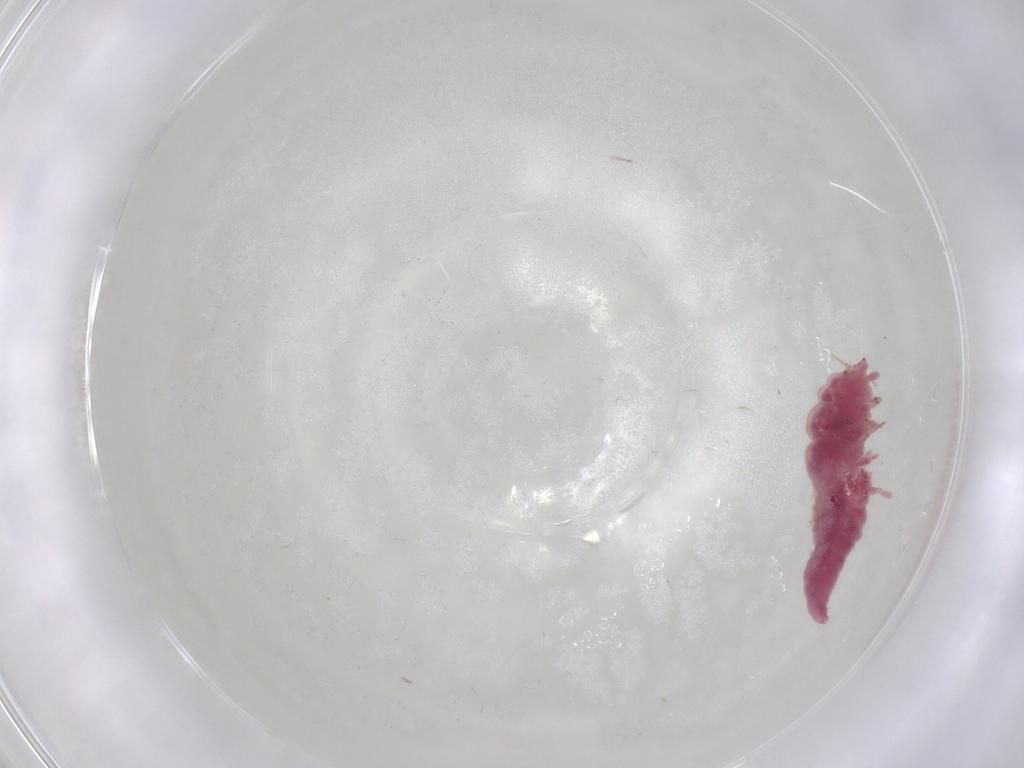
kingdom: Animalia
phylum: Arthropoda
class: Insecta
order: Neuroptera
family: Coniopterygidae
